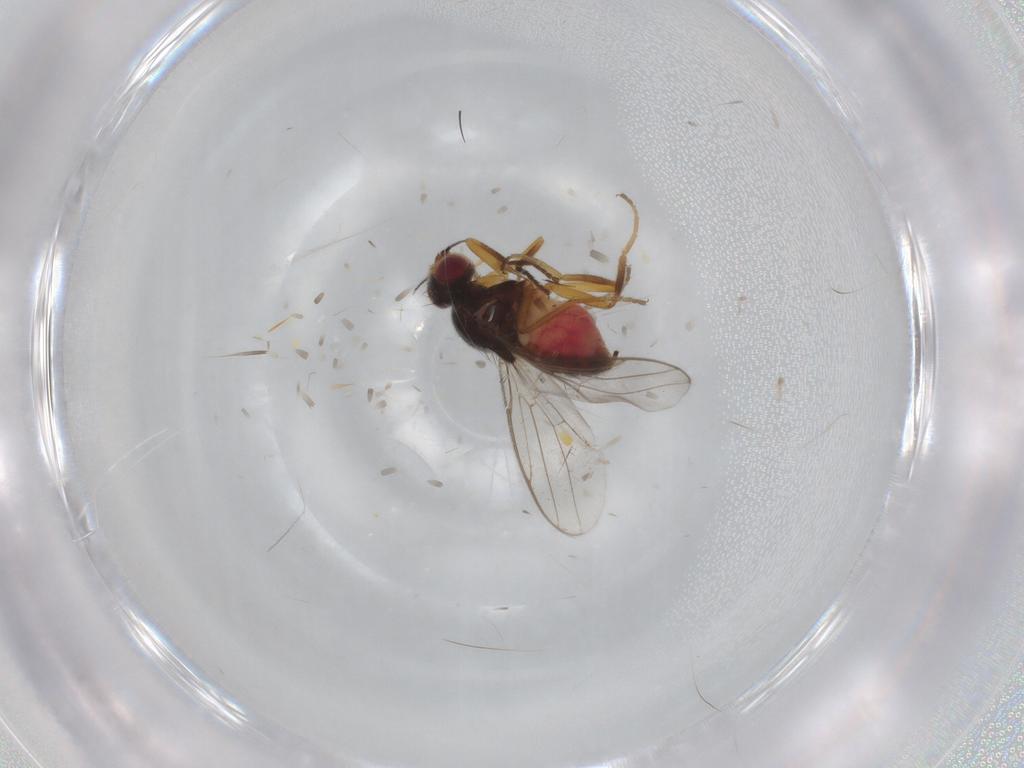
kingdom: Animalia
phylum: Arthropoda
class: Insecta
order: Diptera
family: Chloropidae
